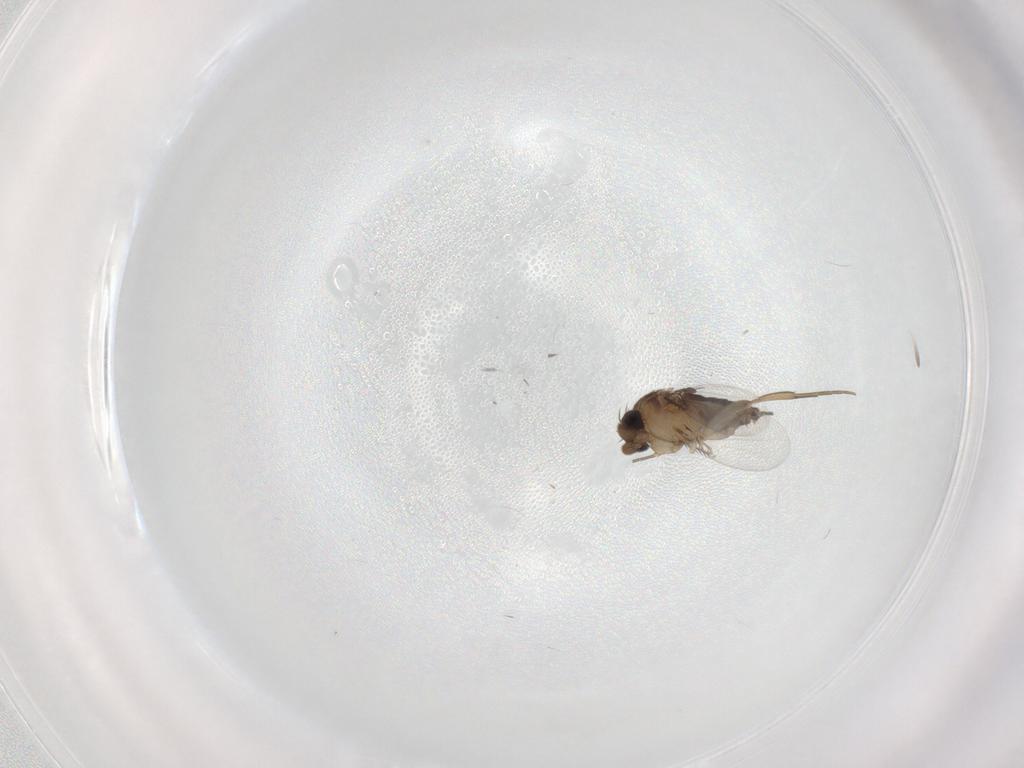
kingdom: Animalia
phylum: Arthropoda
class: Insecta
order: Diptera
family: Phoridae
